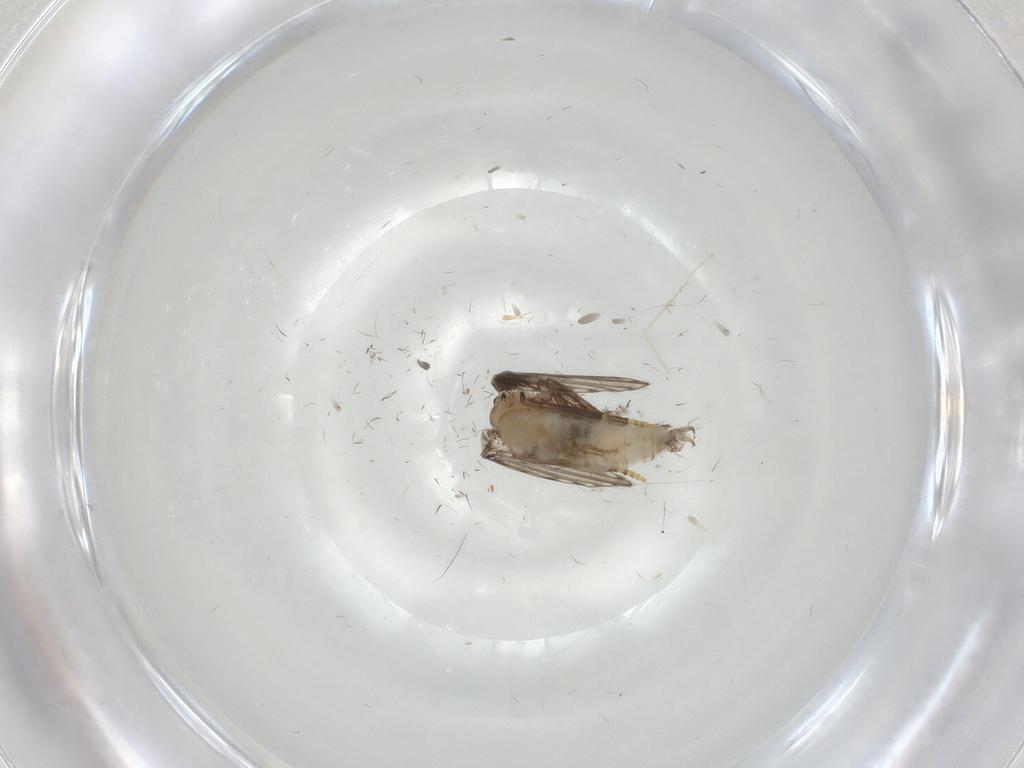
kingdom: Animalia
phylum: Arthropoda
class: Insecta
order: Diptera
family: Psychodidae
